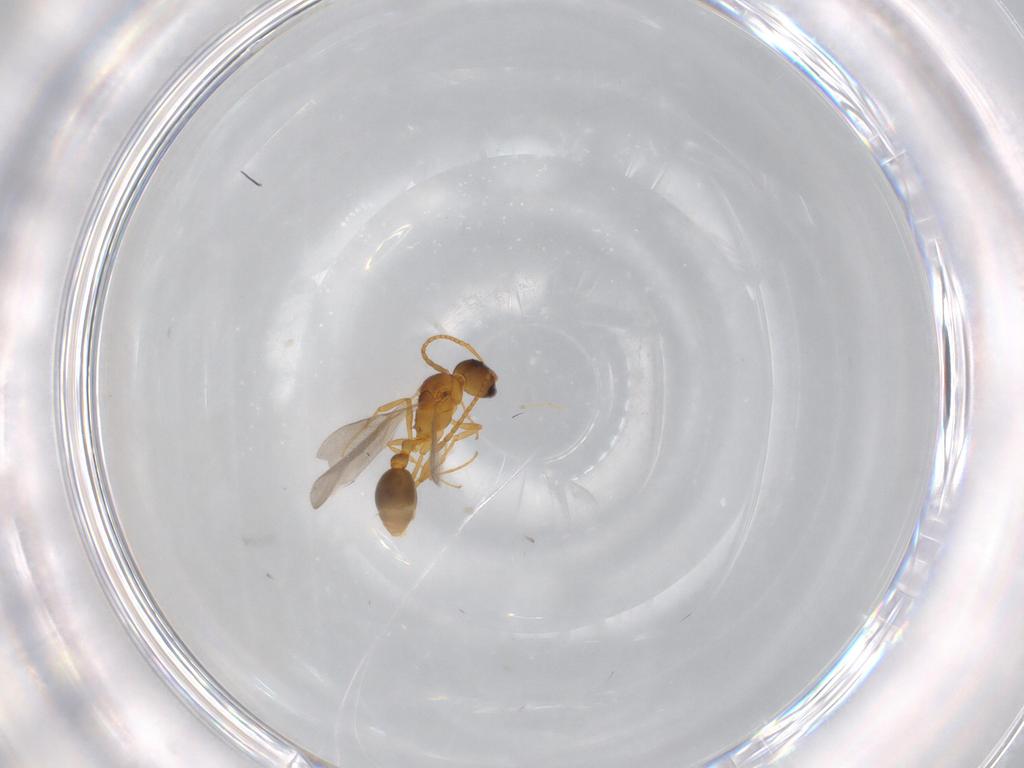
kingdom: Animalia
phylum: Arthropoda
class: Insecta
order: Hymenoptera
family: Formicidae
